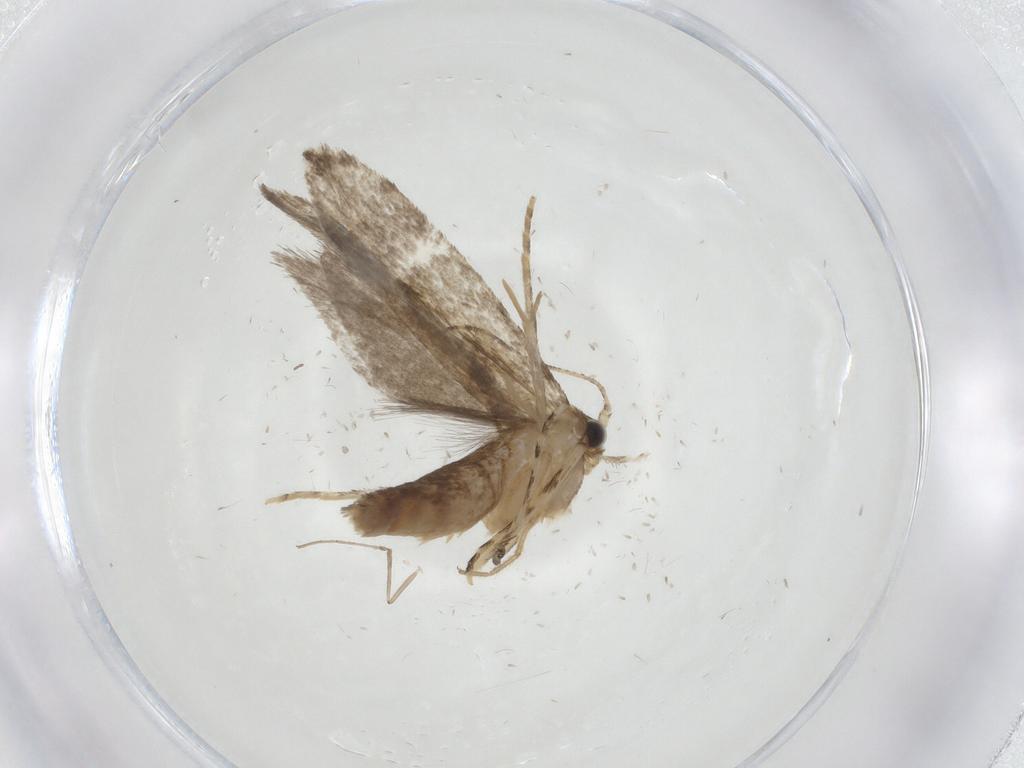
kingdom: Animalia
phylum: Arthropoda
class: Insecta
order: Lepidoptera
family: Tineidae
